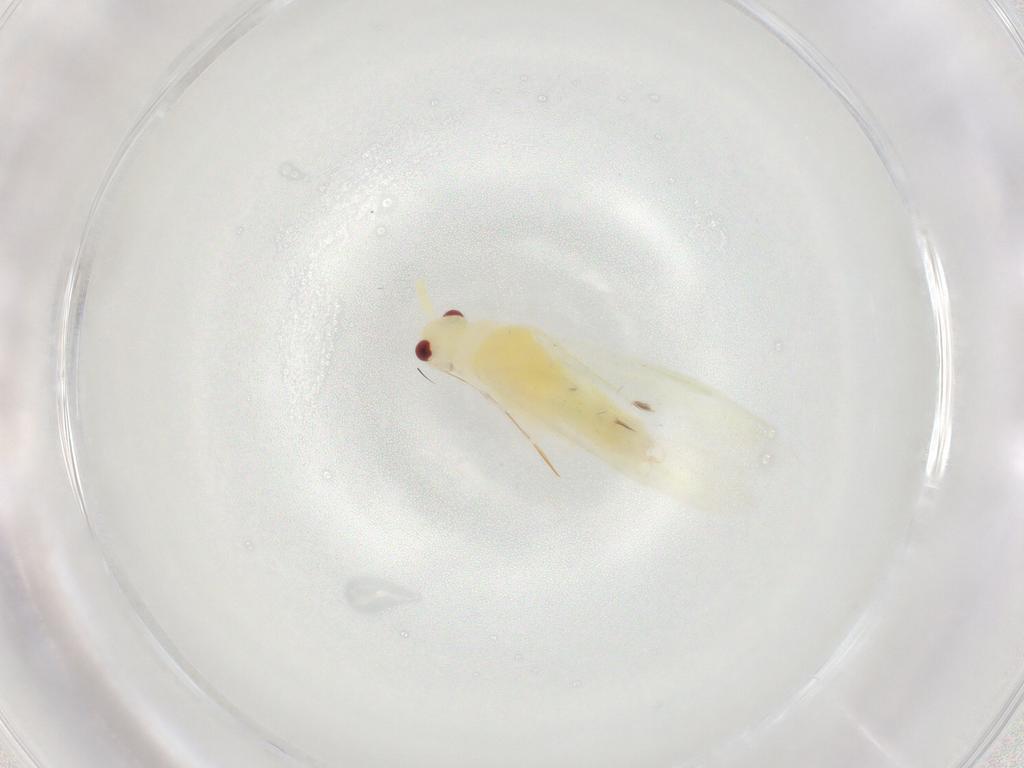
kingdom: Animalia
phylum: Arthropoda
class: Insecta
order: Hemiptera
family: Miridae
